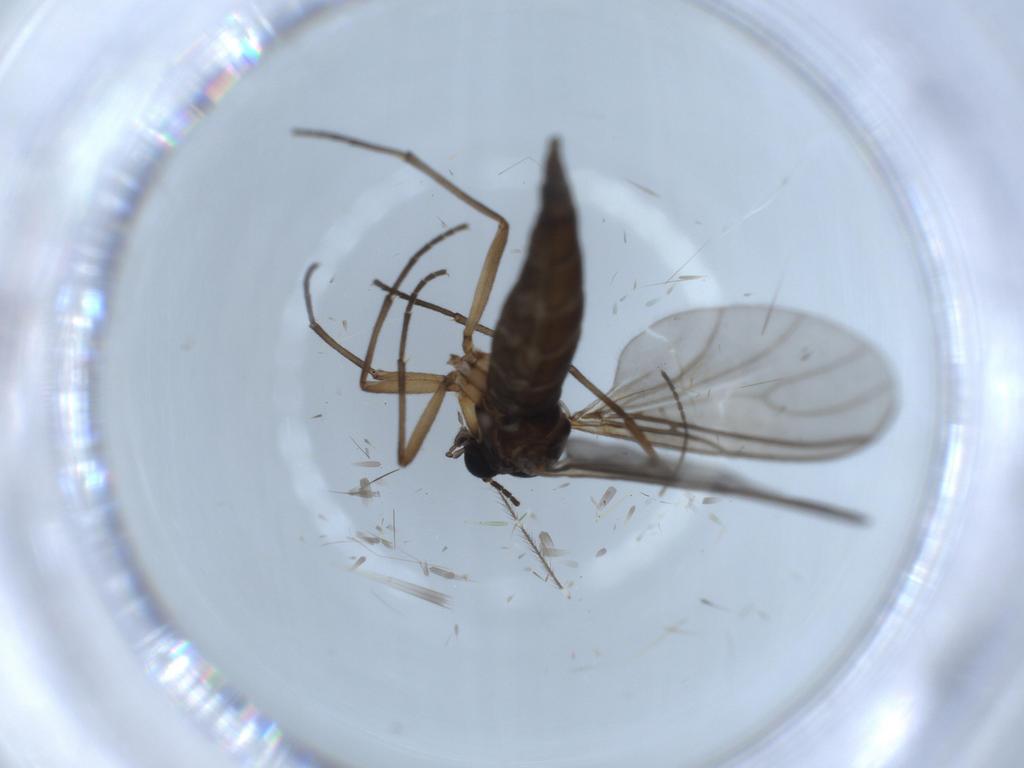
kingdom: Animalia
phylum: Arthropoda
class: Insecta
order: Diptera
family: Sciaridae
